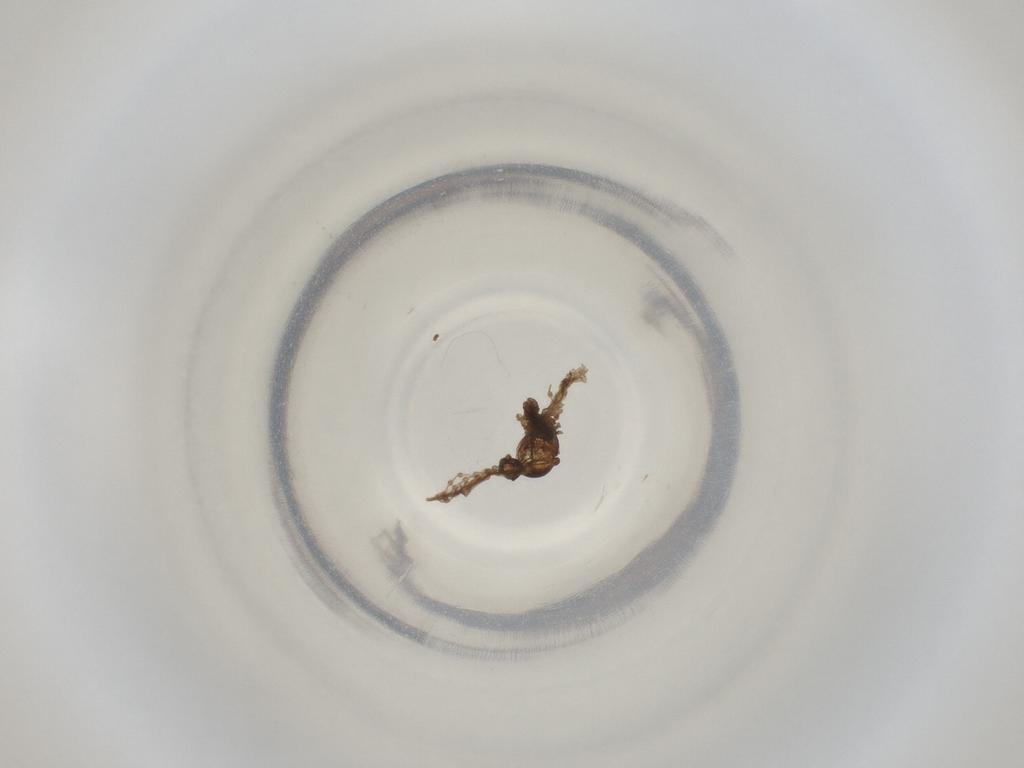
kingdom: Animalia
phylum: Arthropoda
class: Insecta
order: Diptera
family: Cecidomyiidae
